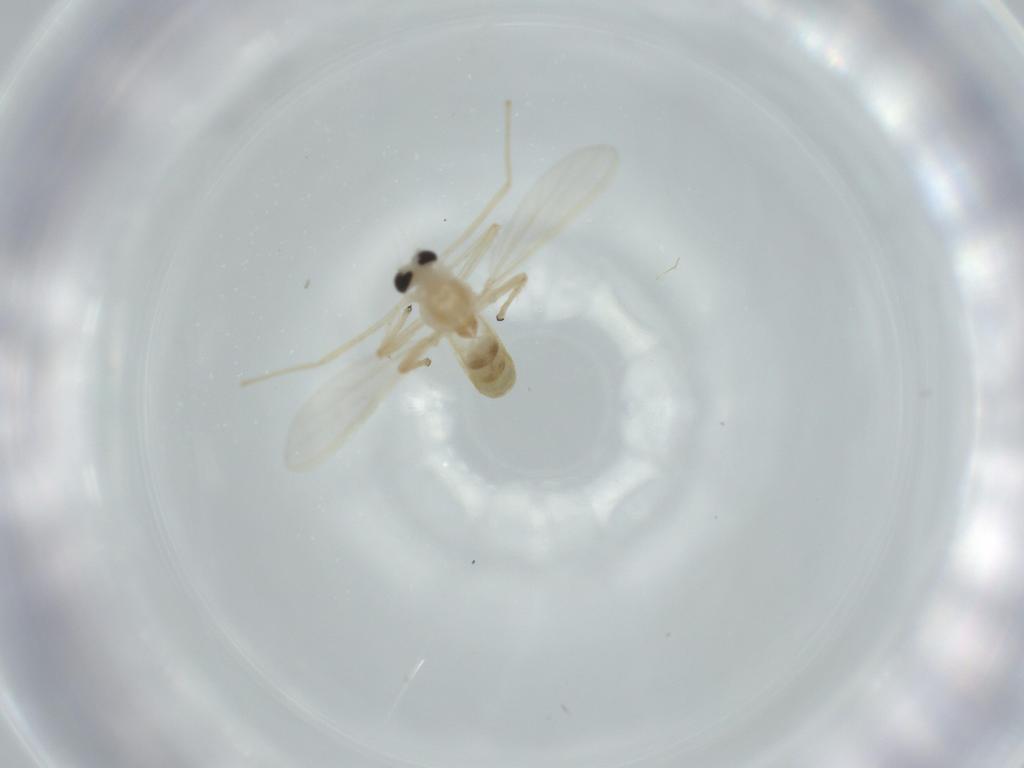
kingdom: Animalia
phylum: Arthropoda
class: Insecta
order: Diptera
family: Chironomidae
